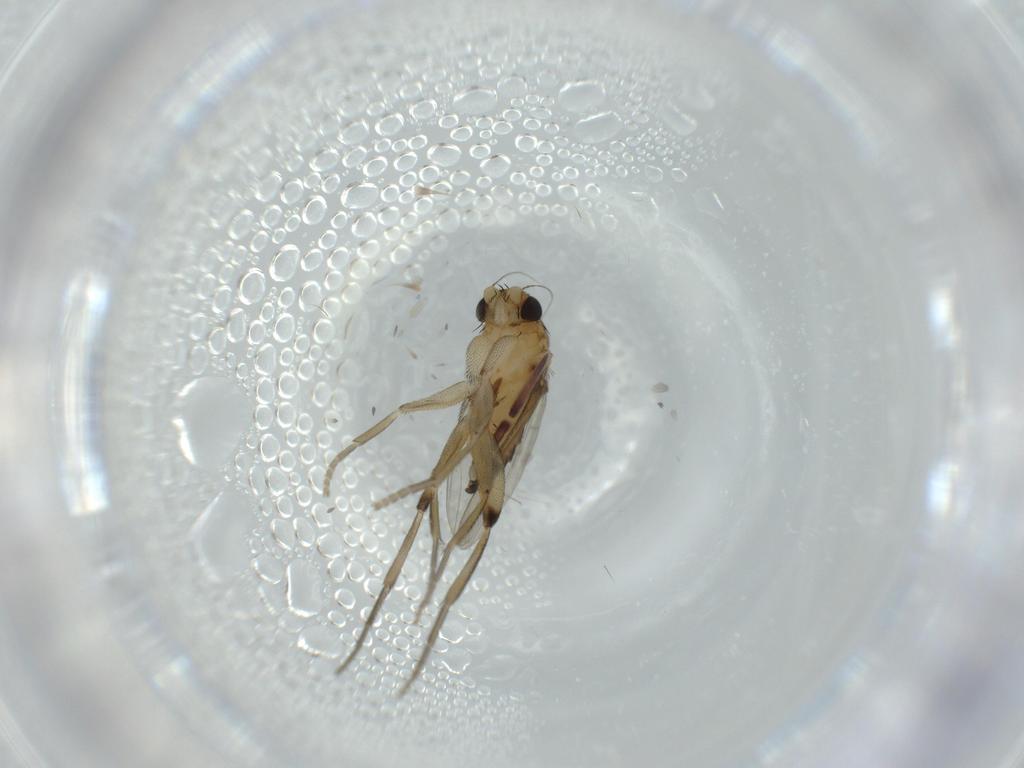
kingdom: Animalia
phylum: Arthropoda
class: Insecta
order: Diptera
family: Phoridae
